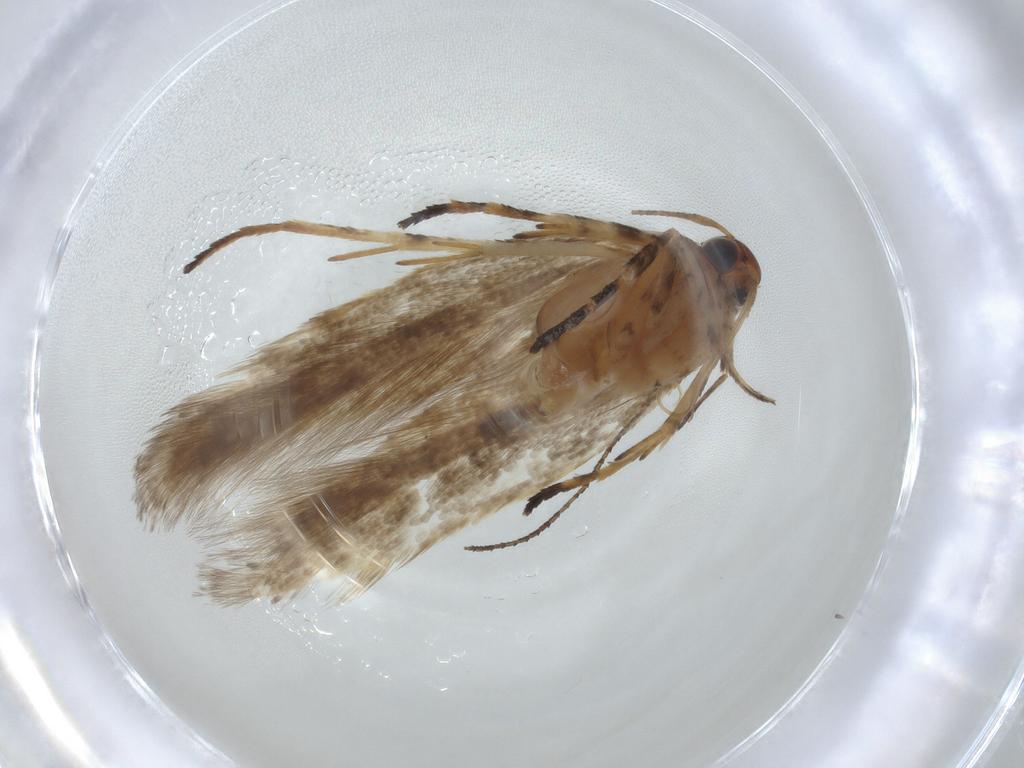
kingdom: Animalia
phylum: Arthropoda
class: Insecta
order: Lepidoptera
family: Gelechiidae
